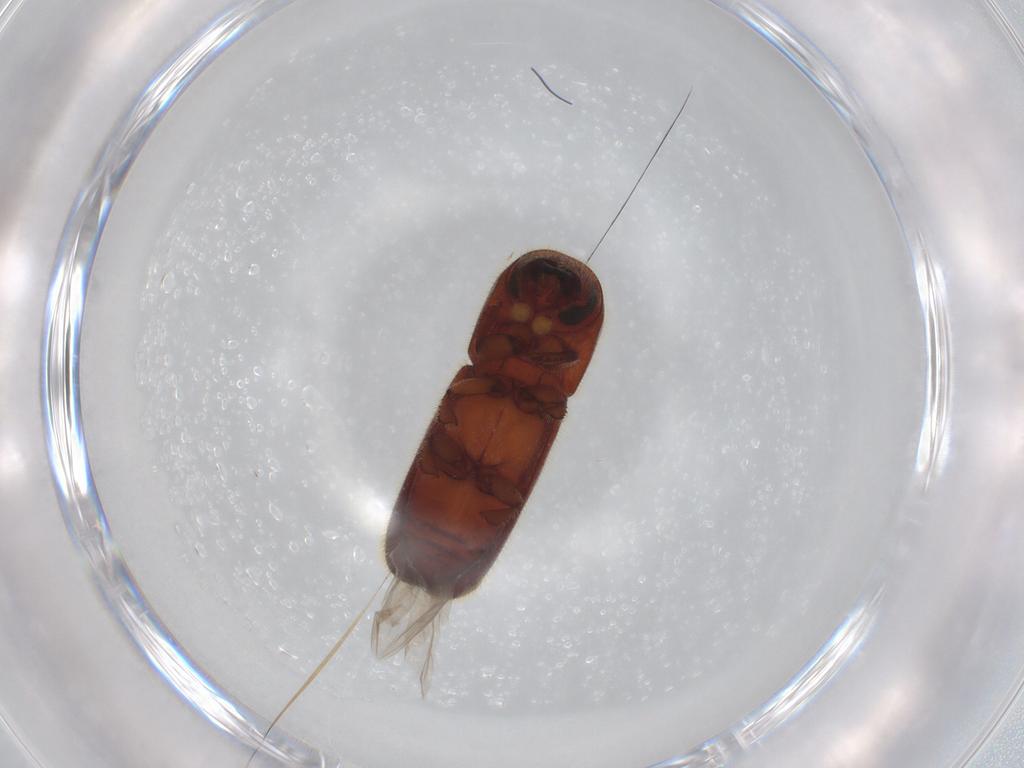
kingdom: Animalia
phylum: Arthropoda
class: Insecta
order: Coleoptera
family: Curculionidae
